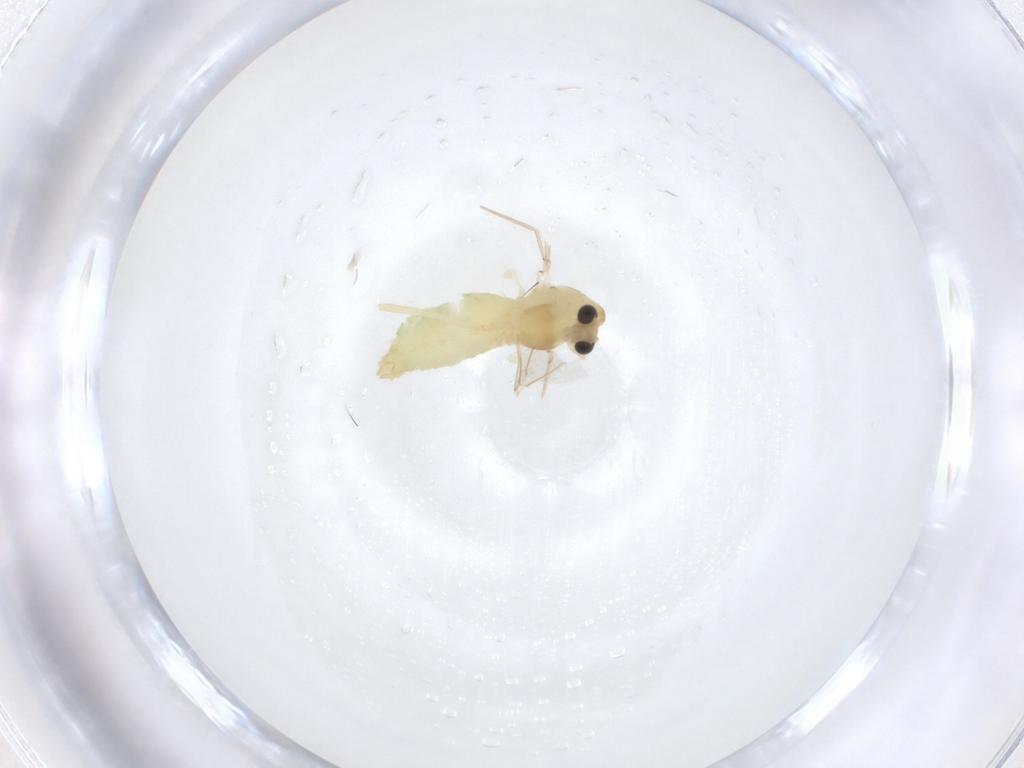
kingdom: Animalia
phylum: Arthropoda
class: Insecta
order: Diptera
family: Chironomidae
